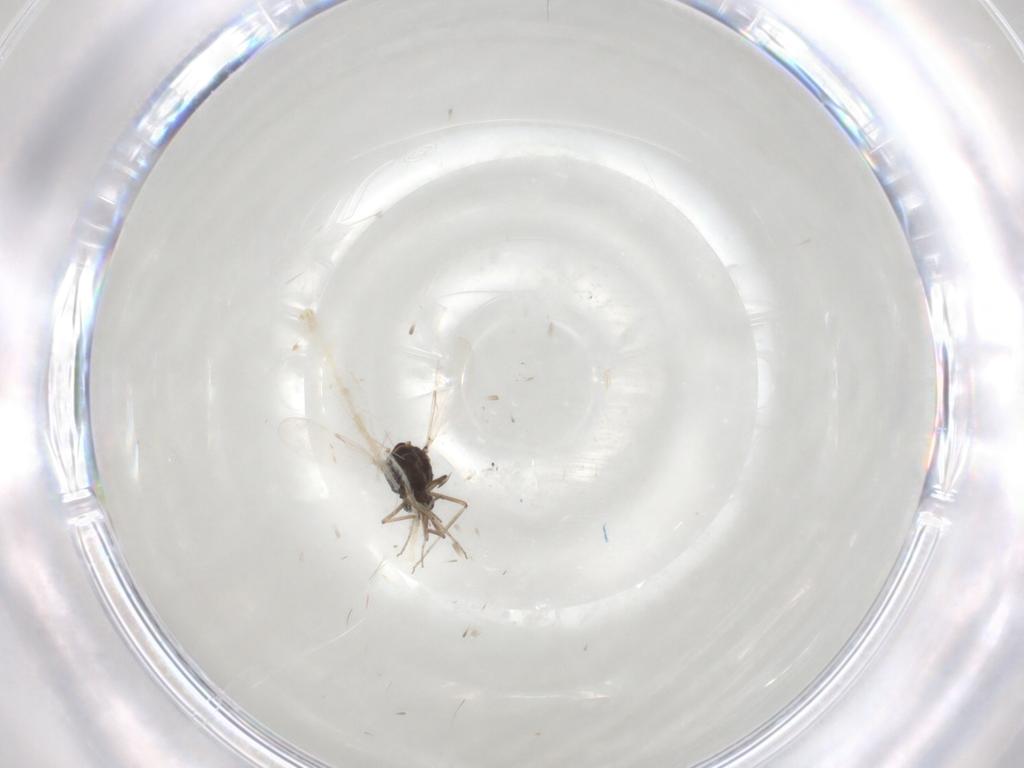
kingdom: Animalia
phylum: Arthropoda
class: Insecta
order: Diptera
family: Ceratopogonidae
